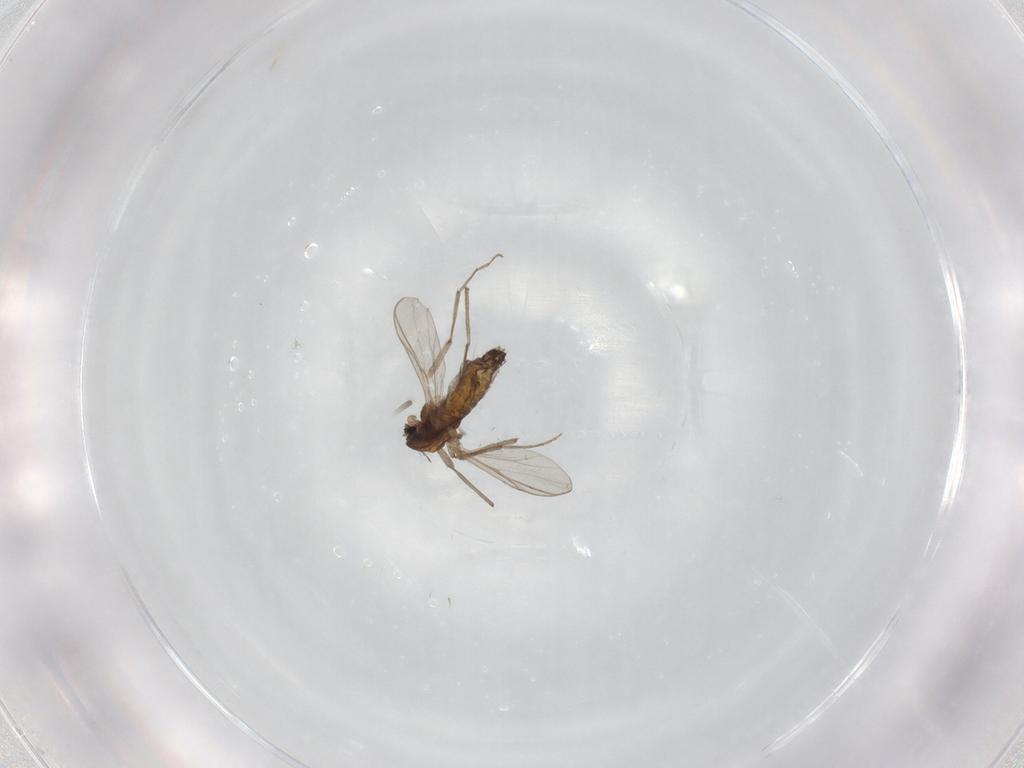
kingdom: Animalia
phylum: Arthropoda
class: Insecta
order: Diptera
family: Chironomidae
